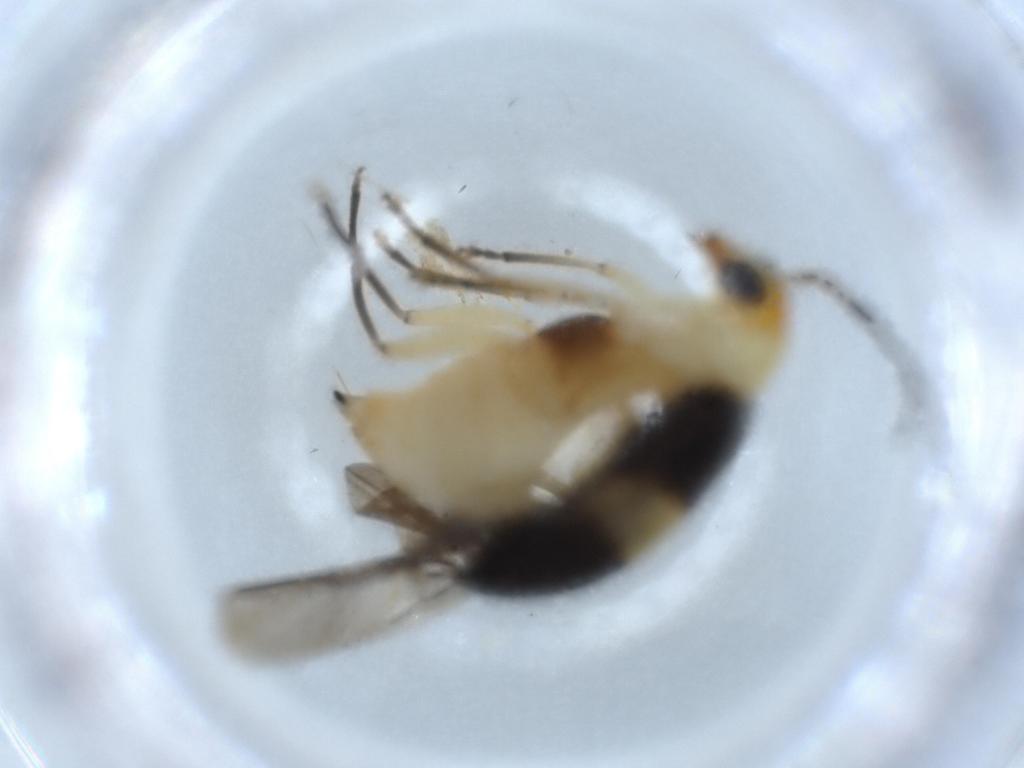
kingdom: Animalia
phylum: Arthropoda
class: Insecta
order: Coleoptera
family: Chrysomelidae
